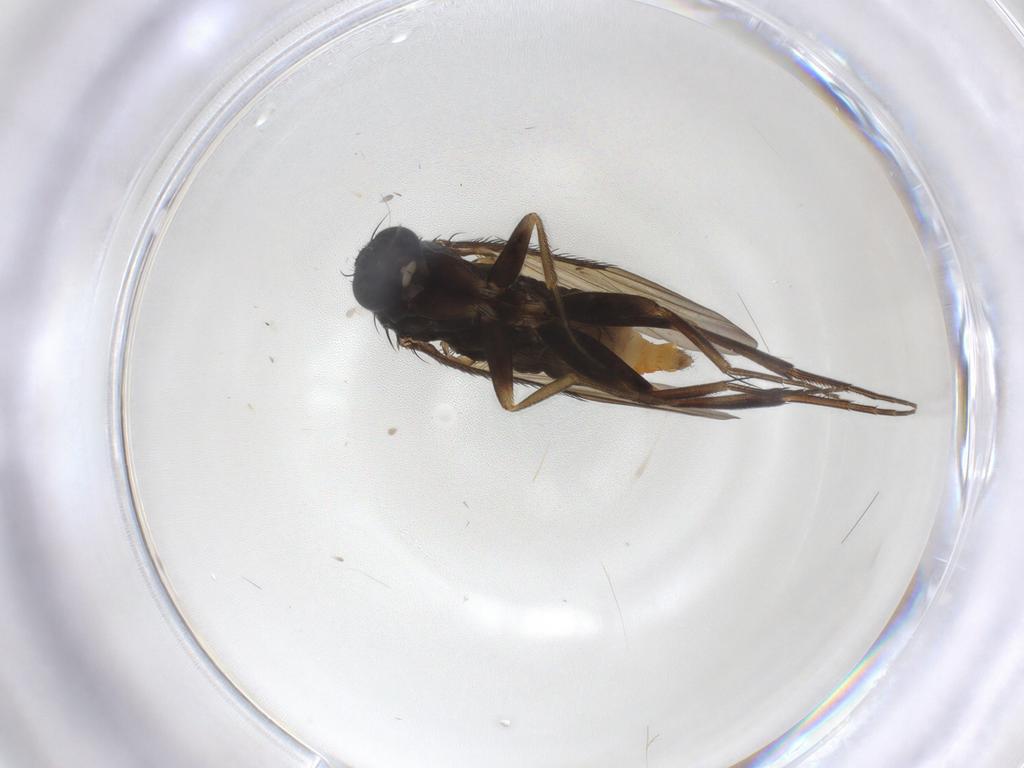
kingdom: Animalia
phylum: Arthropoda
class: Insecta
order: Diptera
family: Phoridae
